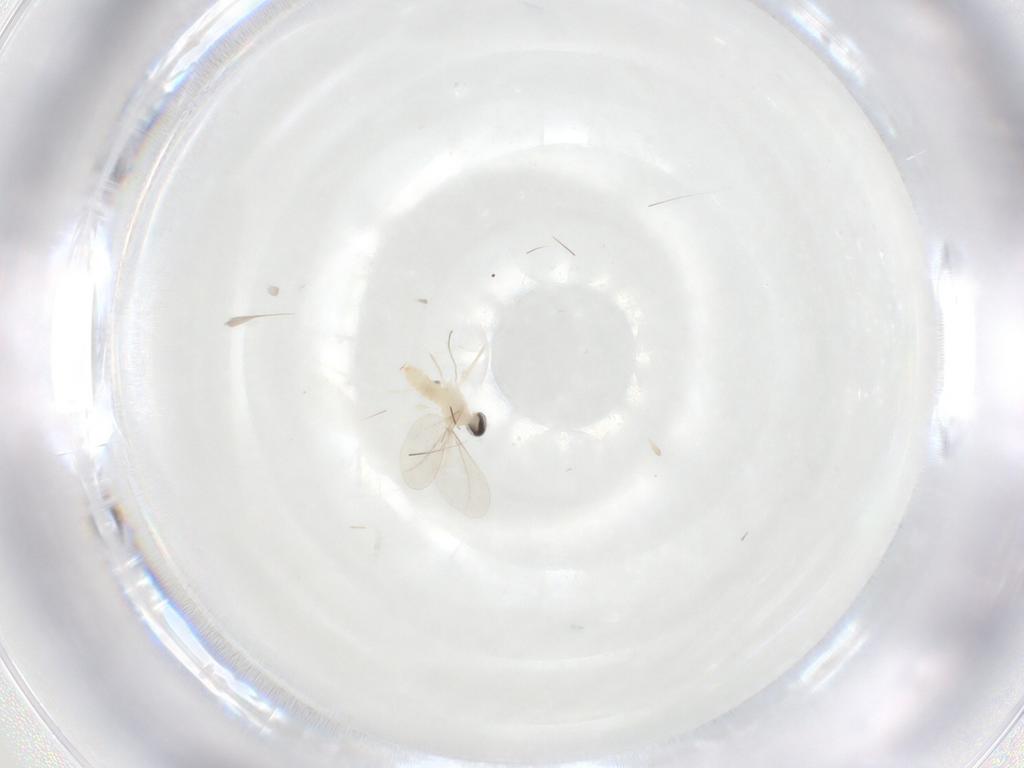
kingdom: Animalia
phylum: Arthropoda
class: Insecta
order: Diptera
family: Cecidomyiidae
